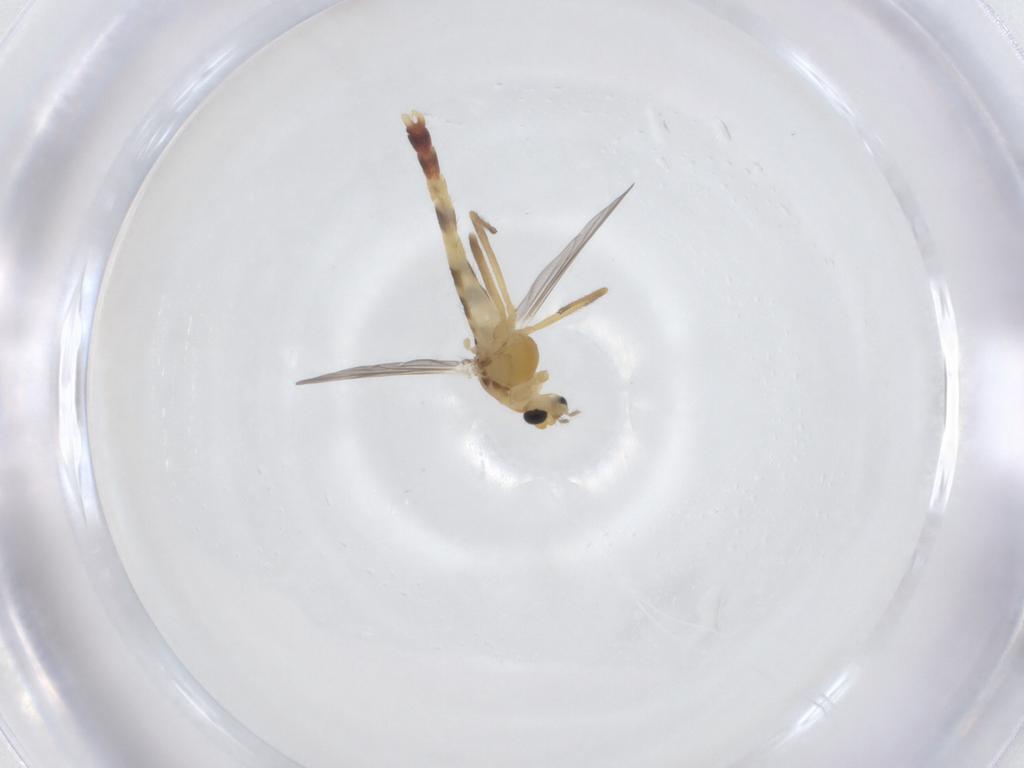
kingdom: Animalia
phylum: Arthropoda
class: Insecta
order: Diptera
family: Chironomidae
